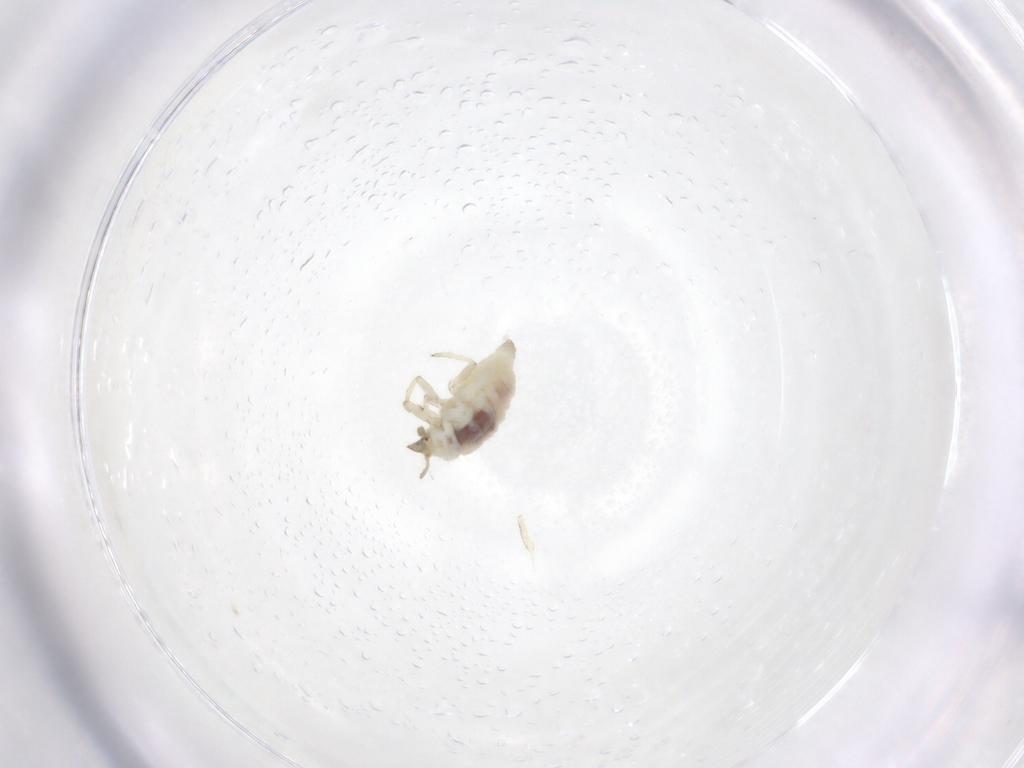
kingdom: Animalia
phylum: Arthropoda
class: Insecta
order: Neuroptera
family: Coniopterygidae
